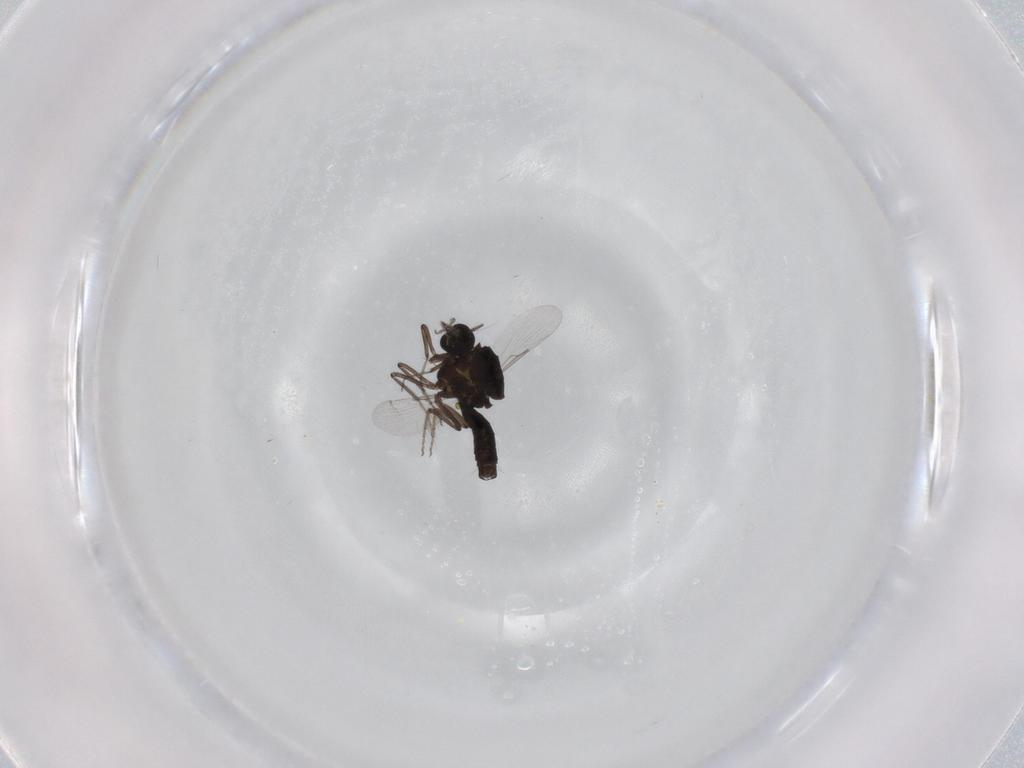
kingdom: Animalia
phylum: Arthropoda
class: Insecta
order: Diptera
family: Ceratopogonidae
